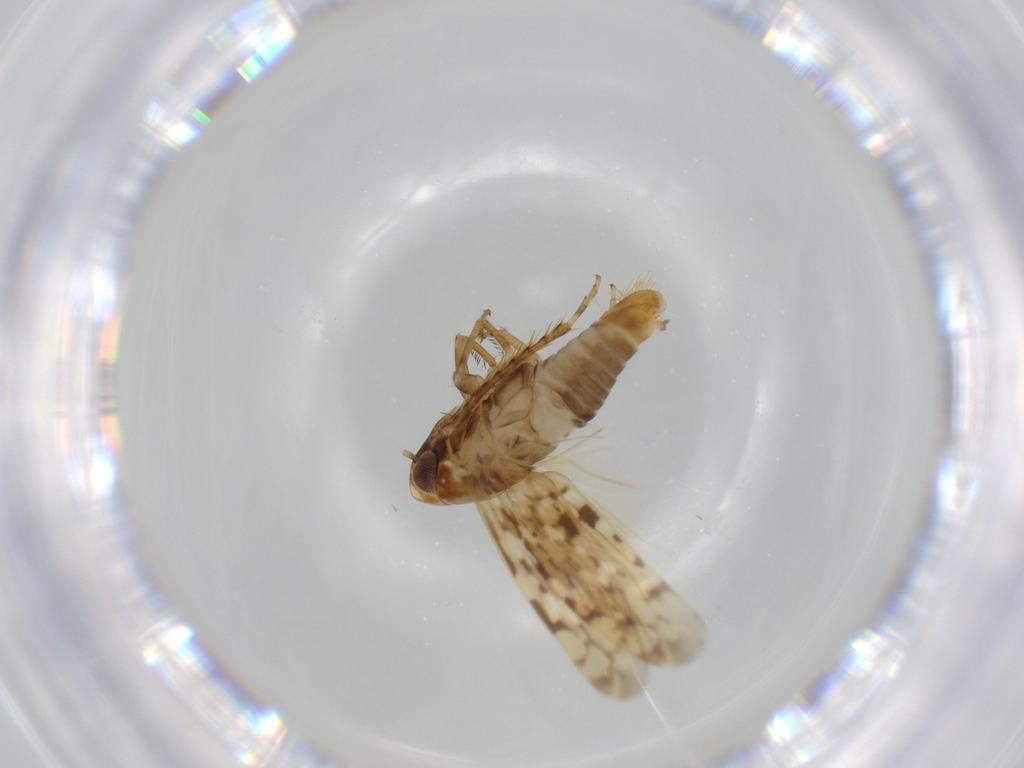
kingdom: Animalia
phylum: Arthropoda
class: Insecta
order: Hemiptera
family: Cicadellidae
